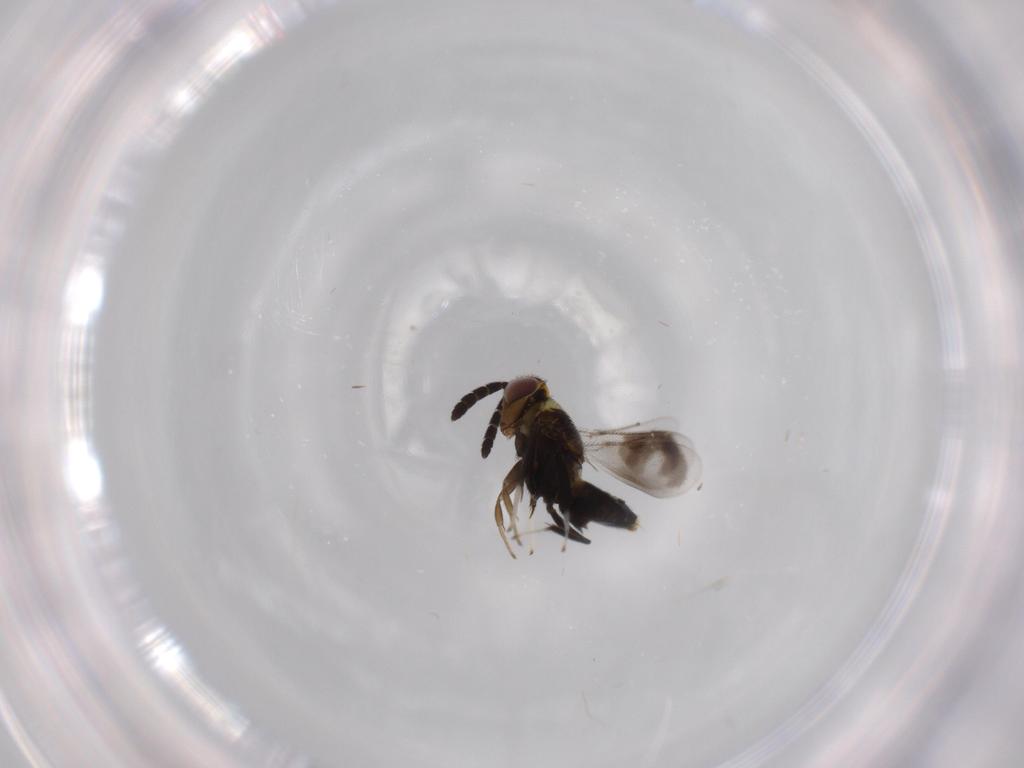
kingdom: Animalia
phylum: Arthropoda
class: Insecta
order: Hymenoptera
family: Aphelinidae
